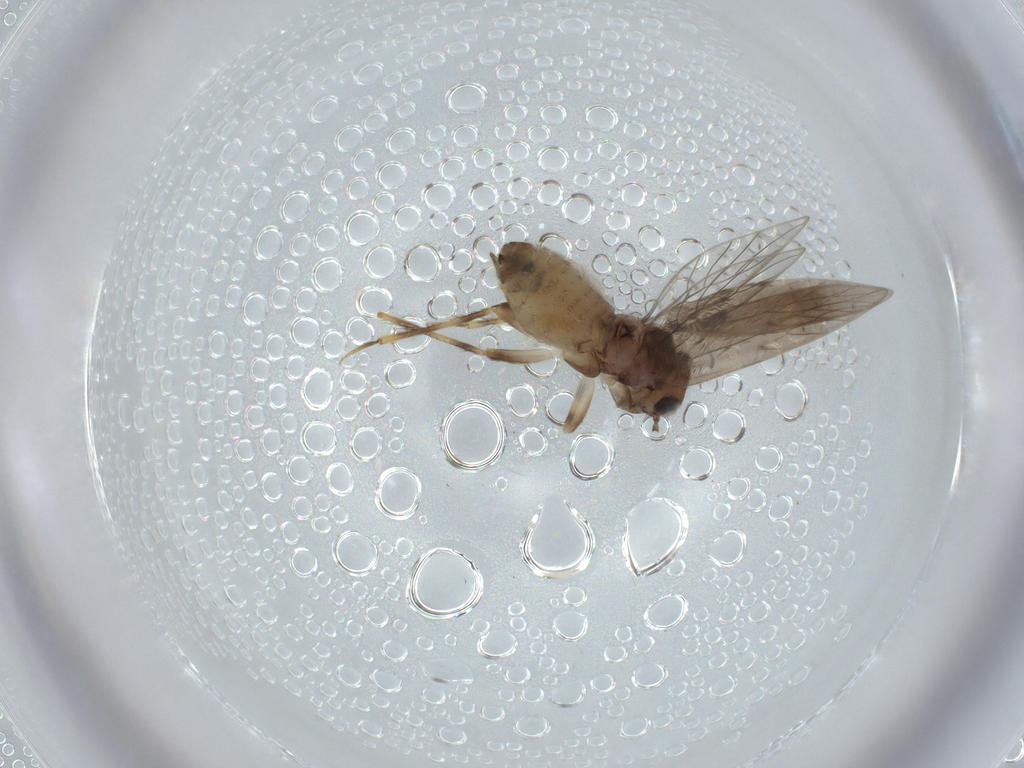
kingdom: Animalia
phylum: Arthropoda
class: Insecta
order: Psocodea
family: Lepidopsocidae
